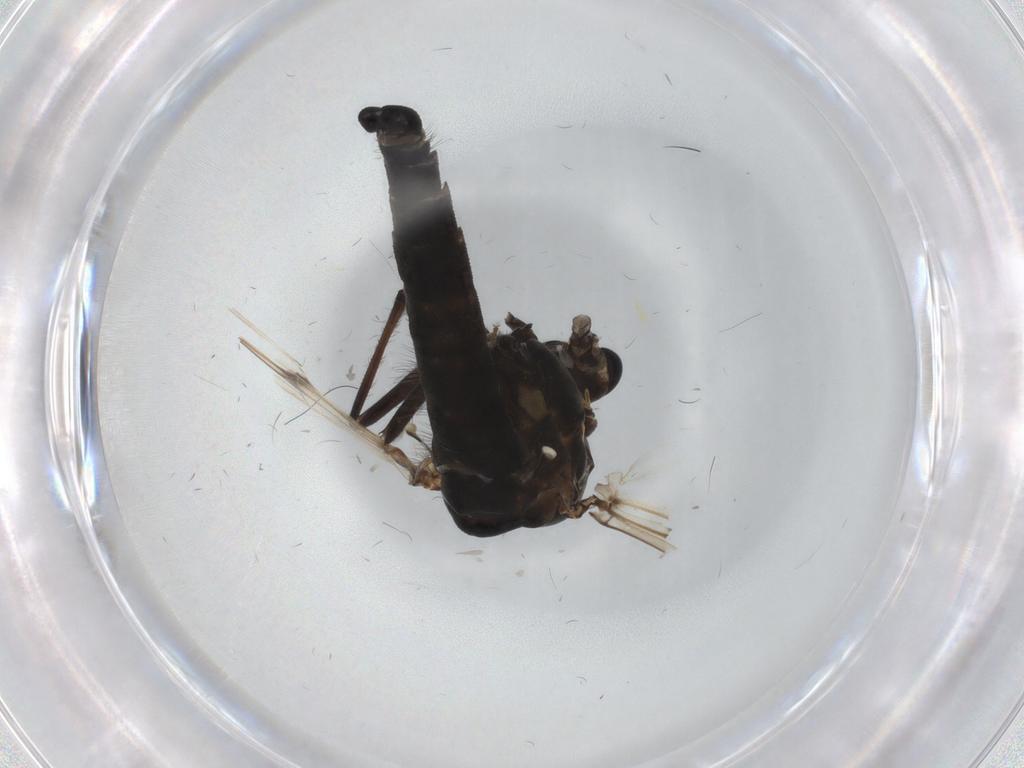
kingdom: Animalia
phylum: Arthropoda
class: Insecta
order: Diptera
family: Chironomidae
